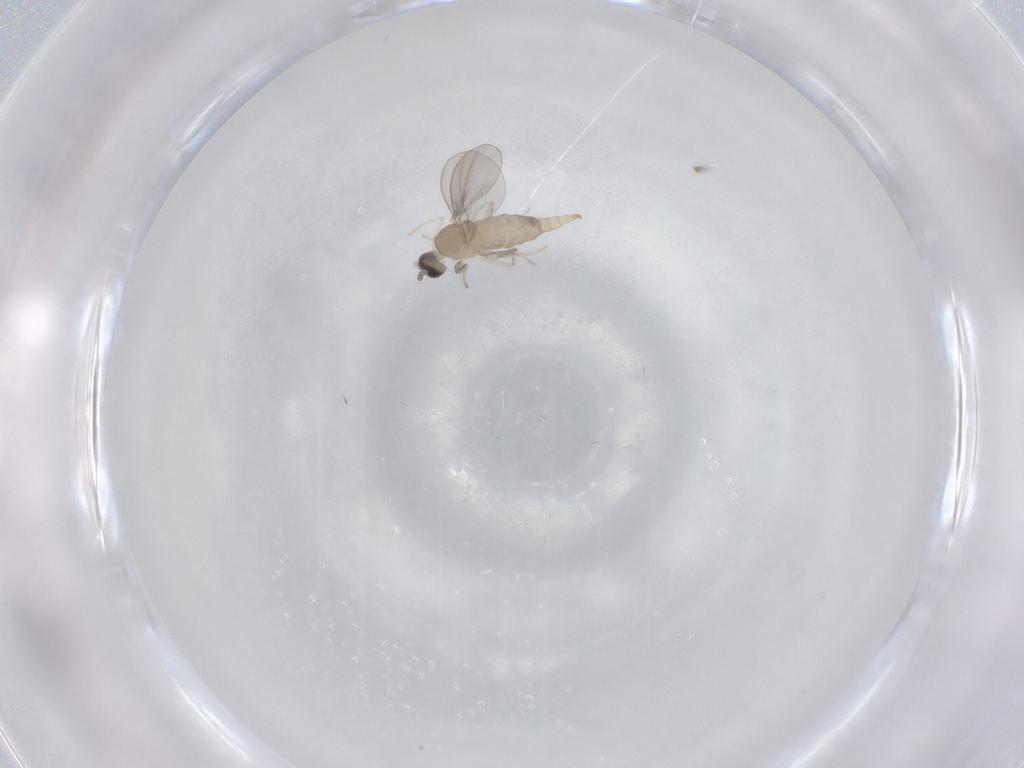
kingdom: Animalia
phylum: Arthropoda
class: Insecta
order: Diptera
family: Cecidomyiidae
